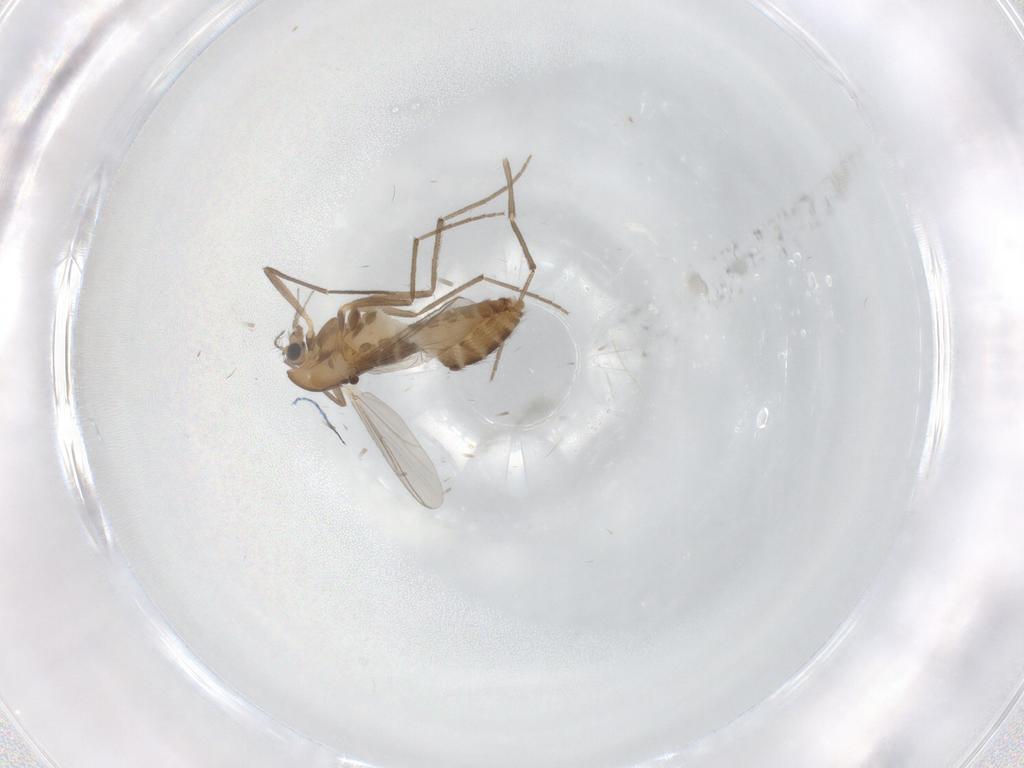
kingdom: Animalia
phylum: Arthropoda
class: Insecta
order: Diptera
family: Chironomidae
